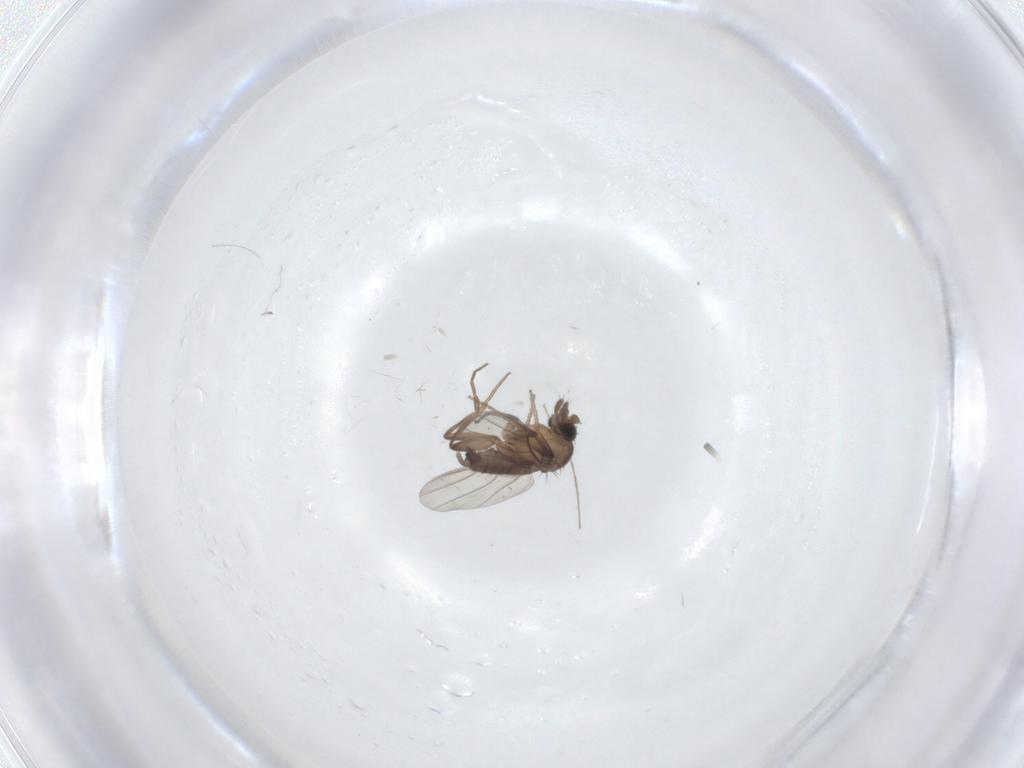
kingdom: Animalia
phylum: Arthropoda
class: Insecta
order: Diptera
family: Phoridae
